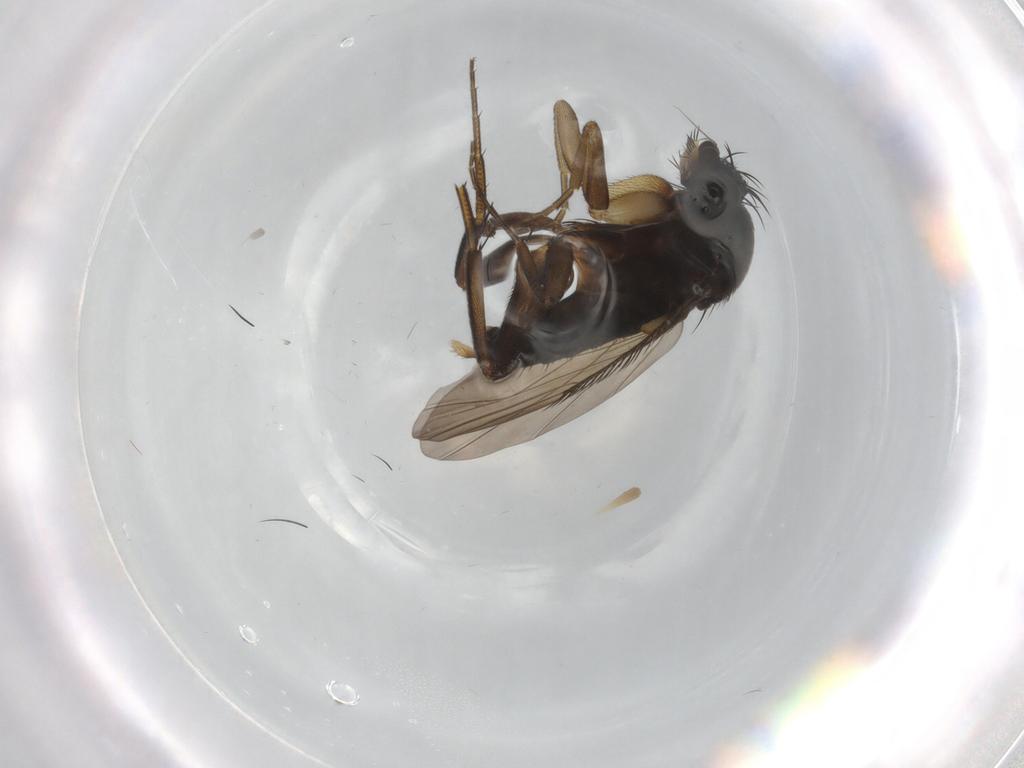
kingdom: Animalia
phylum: Arthropoda
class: Insecta
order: Diptera
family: Phoridae
